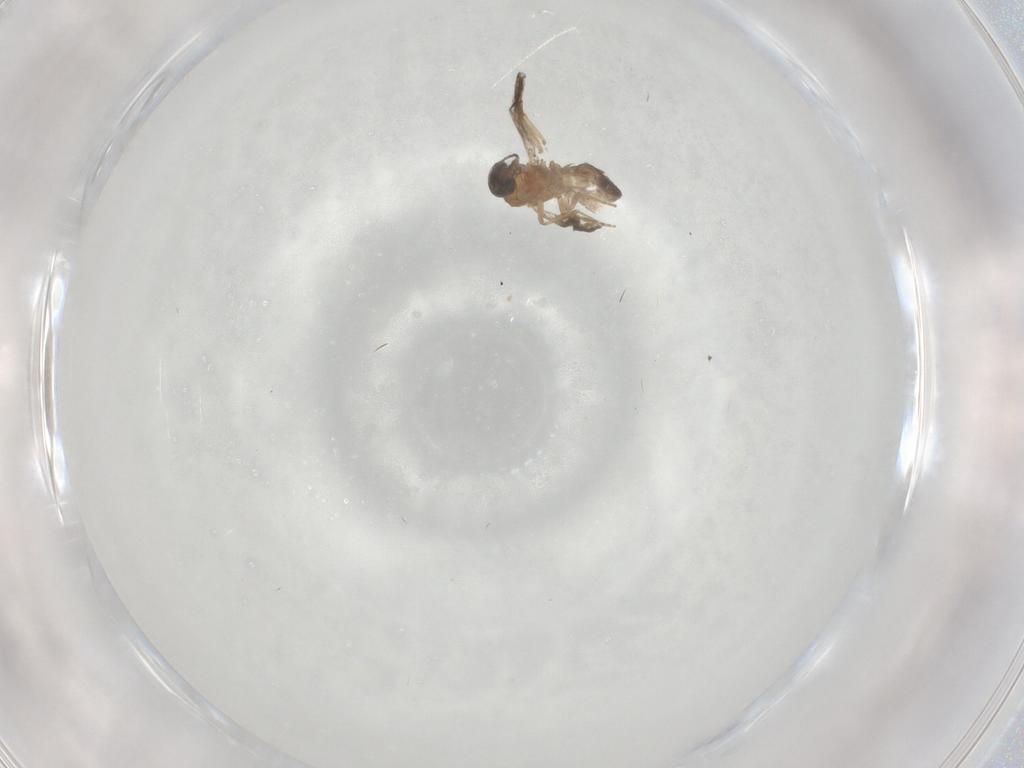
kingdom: Animalia
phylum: Arthropoda
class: Insecta
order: Diptera
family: Ceratopogonidae
